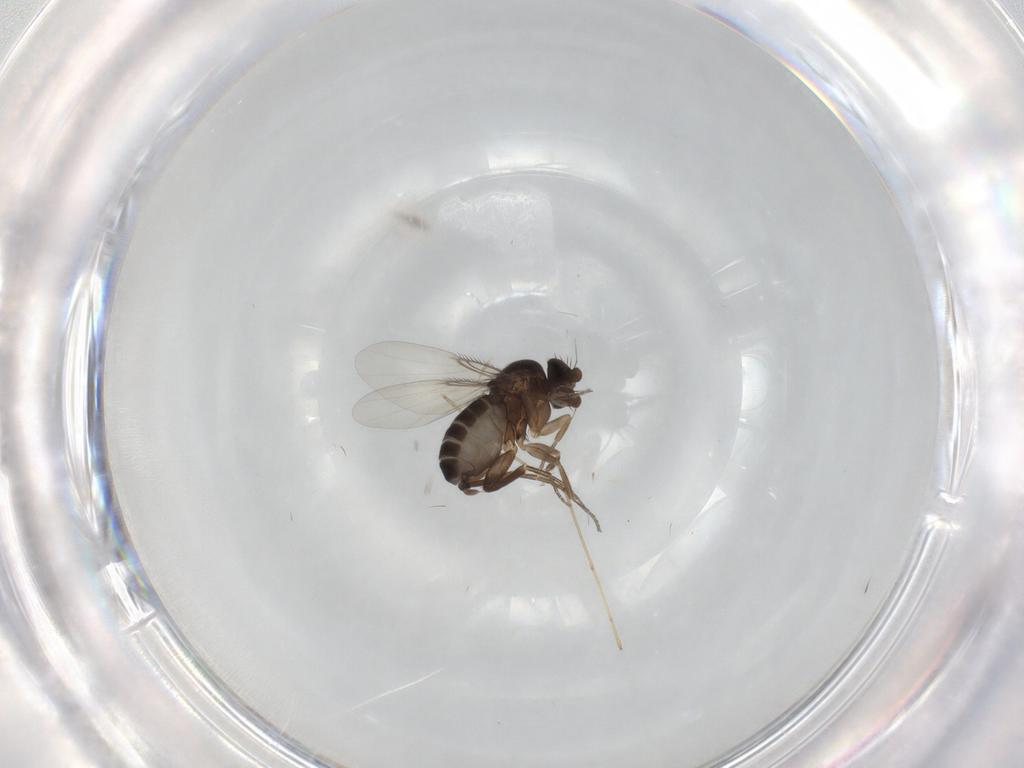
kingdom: Animalia
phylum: Arthropoda
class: Insecta
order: Diptera
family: Phoridae
